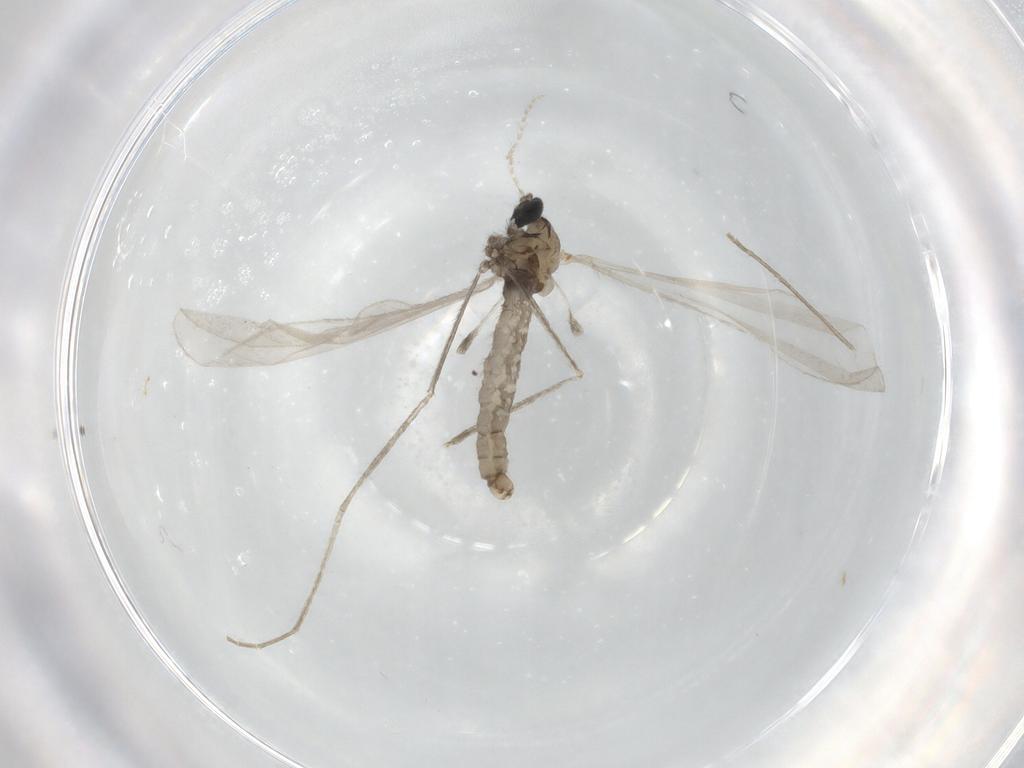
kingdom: Animalia
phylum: Arthropoda
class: Insecta
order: Diptera
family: Cecidomyiidae
